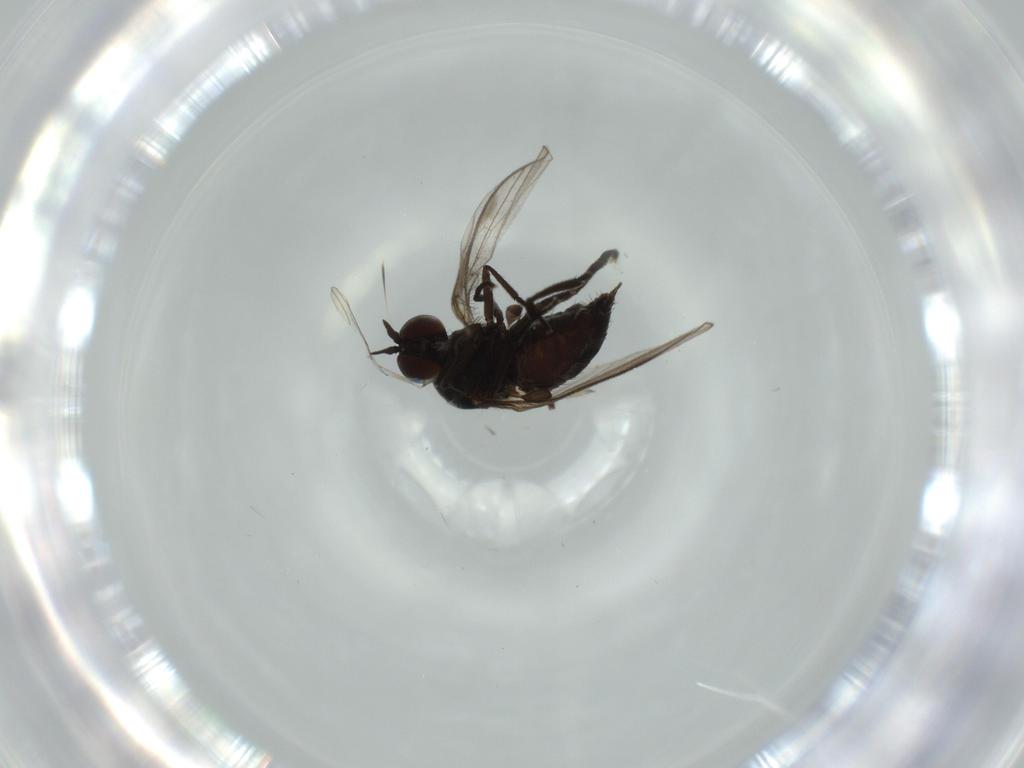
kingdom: Animalia
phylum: Arthropoda
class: Insecta
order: Diptera
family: Dolichopodidae
